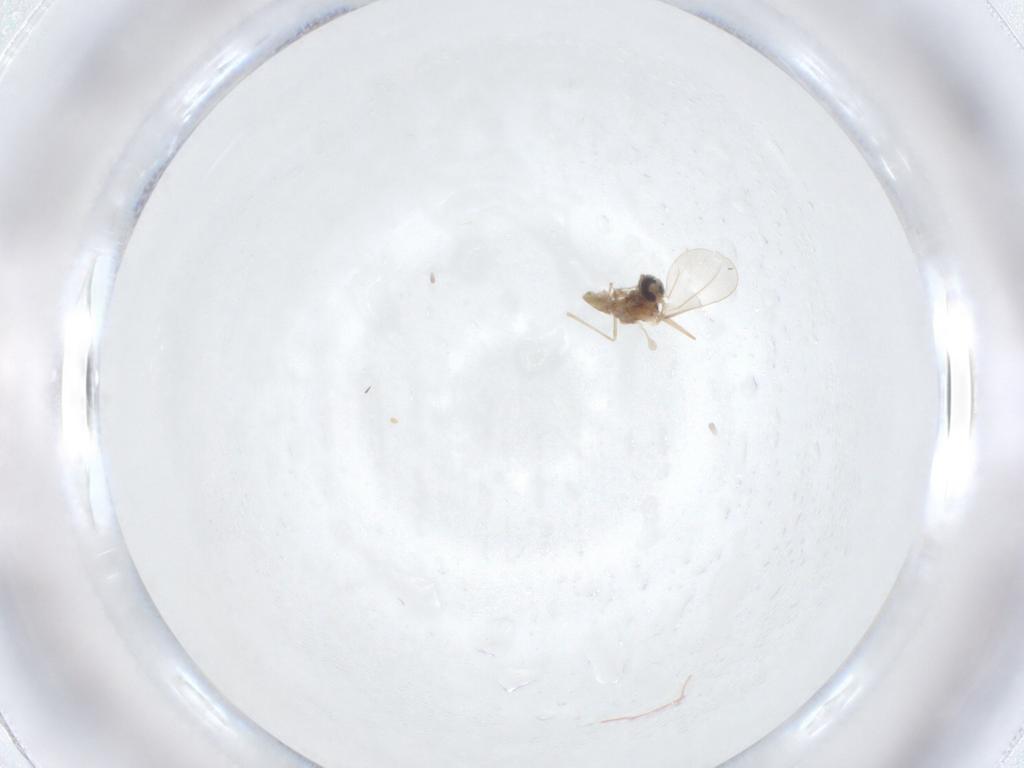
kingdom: Animalia
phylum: Arthropoda
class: Insecta
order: Diptera
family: Cecidomyiidae
